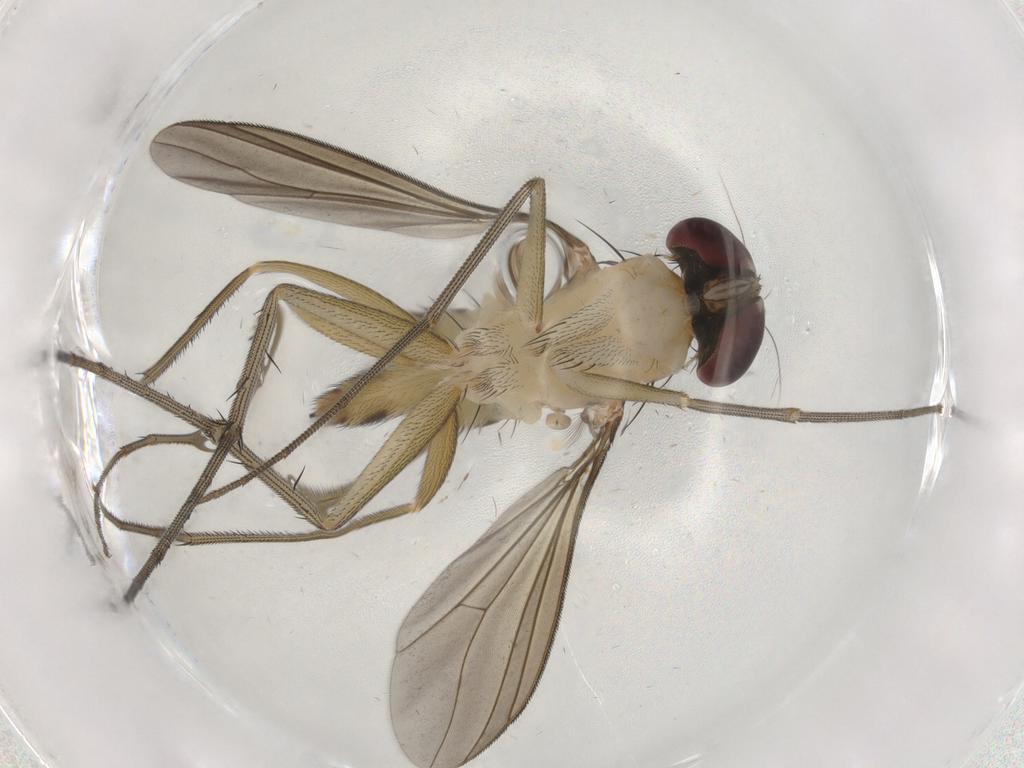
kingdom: Animalia
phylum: Arthropoda
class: Insecta
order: Diptera
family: Dolichopodidae
